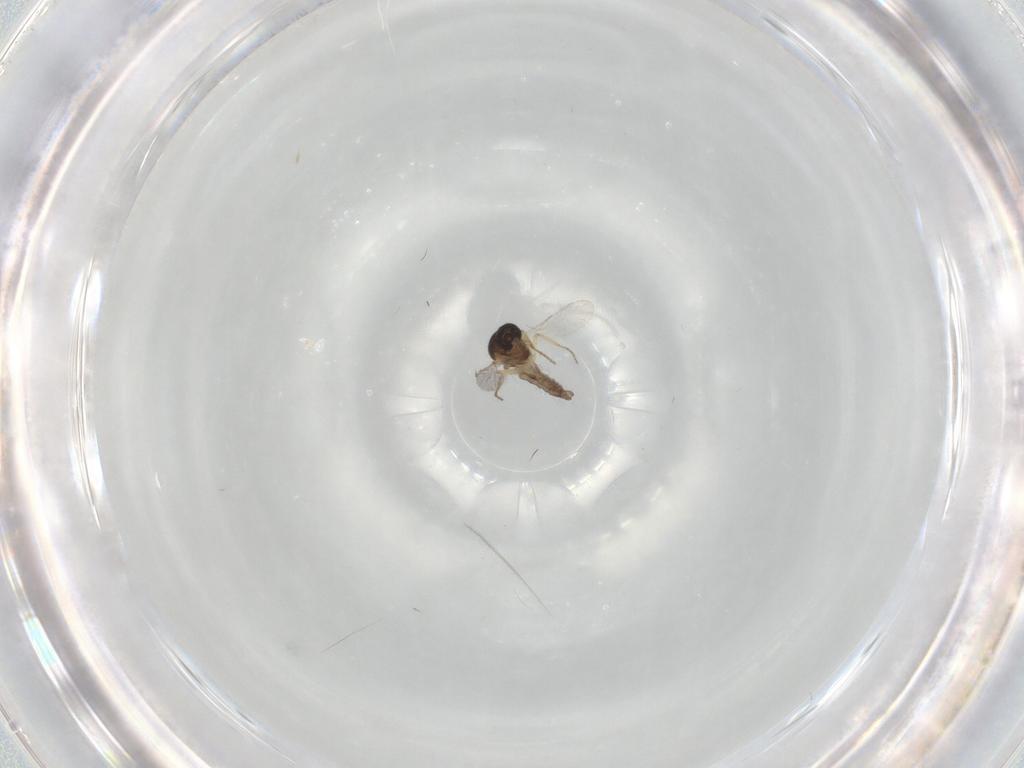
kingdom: Animalia
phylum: Arthropoda
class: Insecta
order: Diptera
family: Ceratopogonidae
